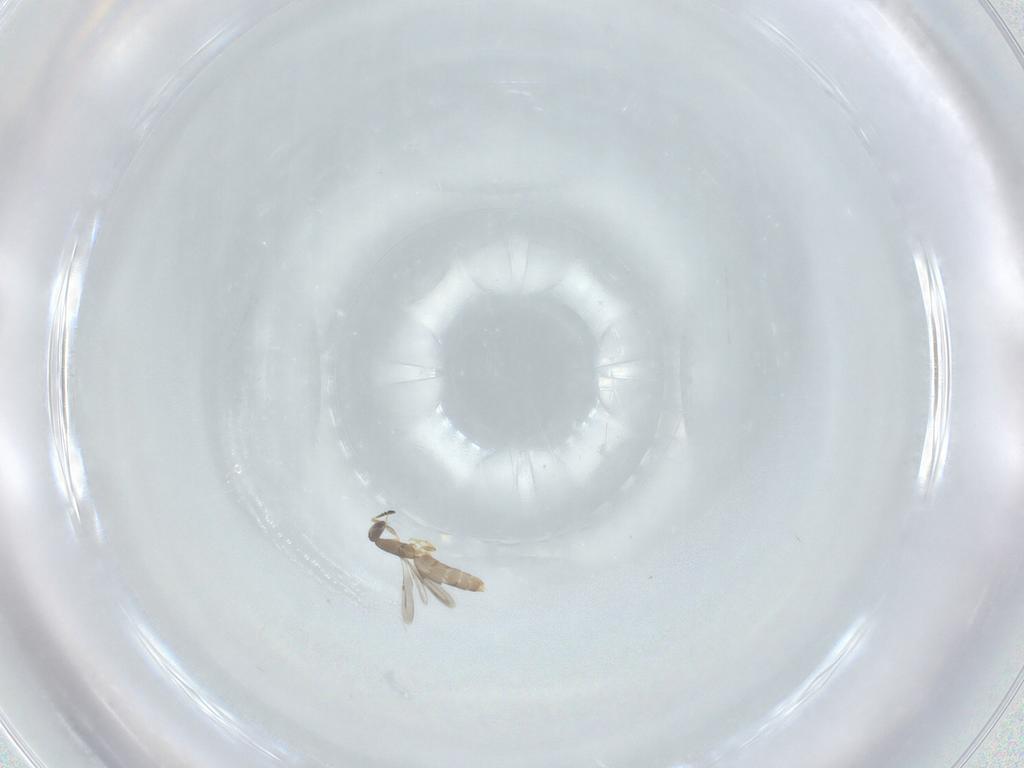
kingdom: Animalia
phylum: Arthropoda
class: Insecta
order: Hymenoptera
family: Ceraphronidae
